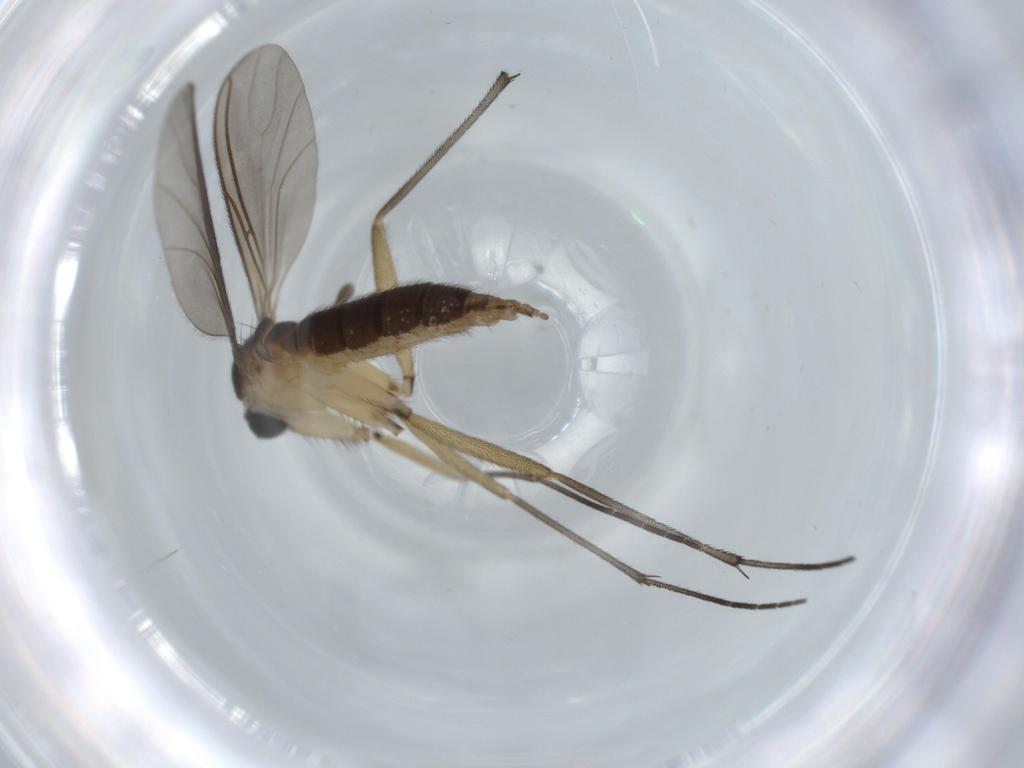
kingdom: Animalia
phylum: Arthropoda
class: Insecta
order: Diptera
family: Sciaridae
